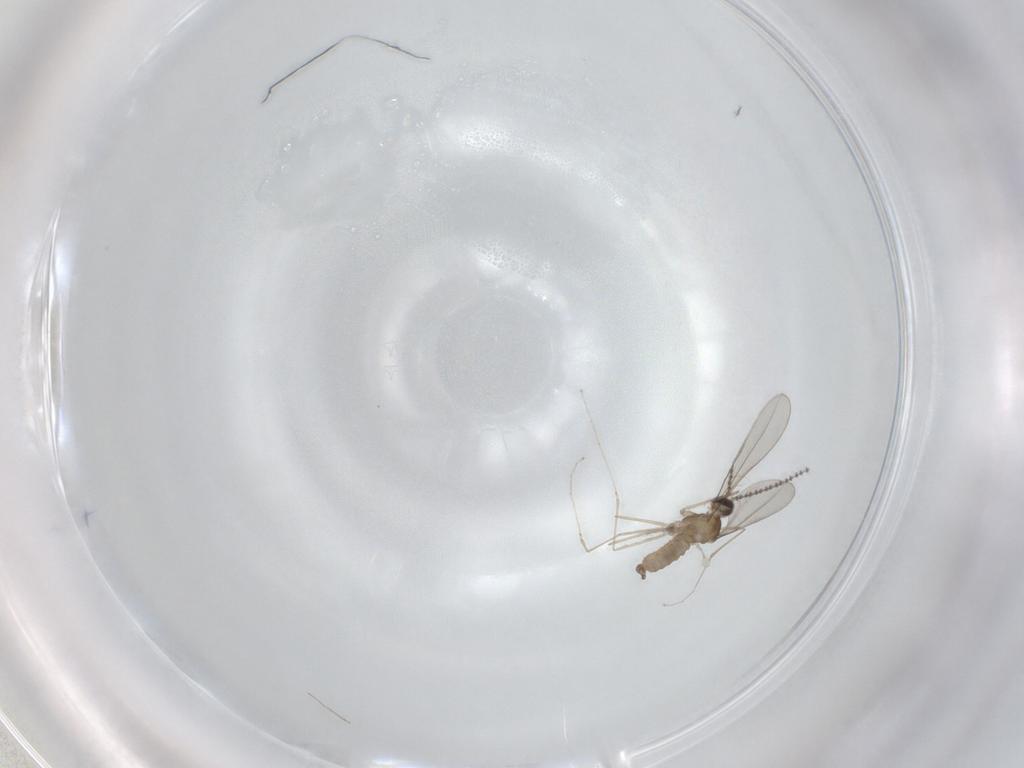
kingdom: Animalia
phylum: Arthropoda
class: Insecta
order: Diptera
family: Cecidomyiidae
